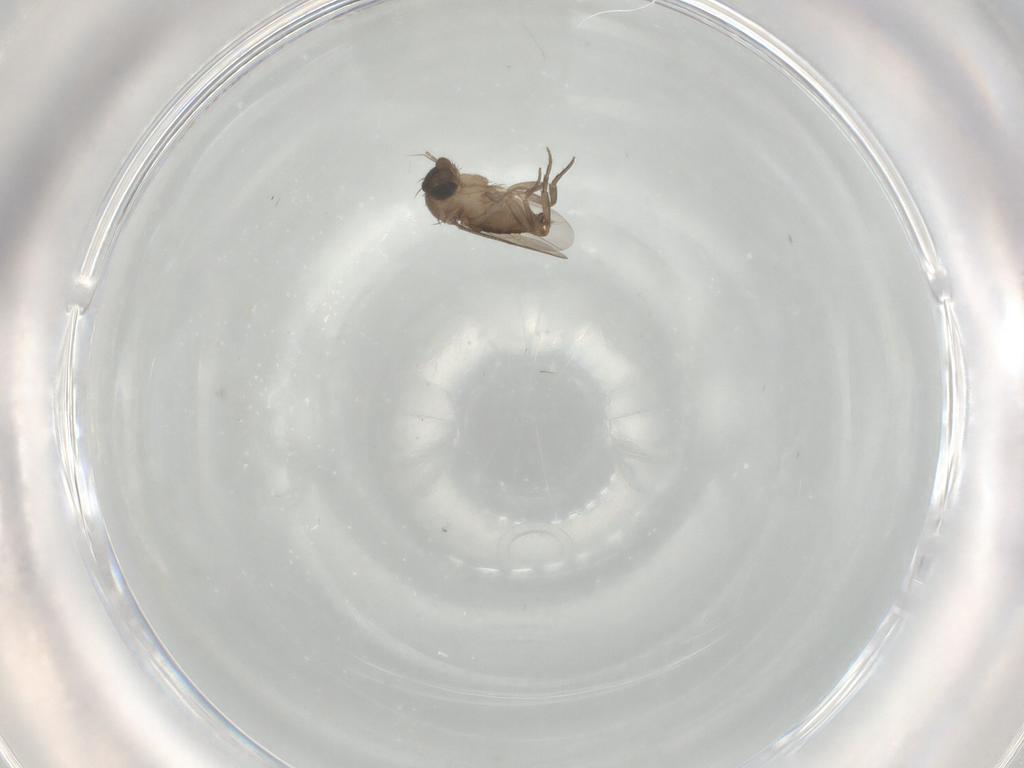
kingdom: Animalia
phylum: Arthropoda
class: Insecta
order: Diptera
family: Phoridae
